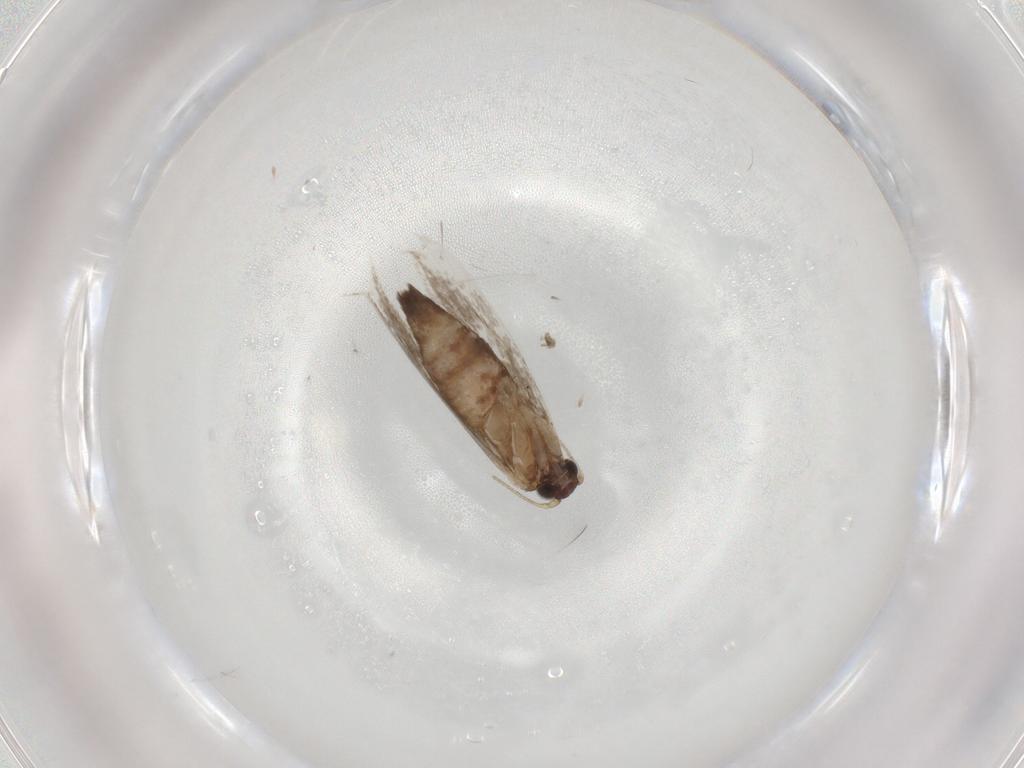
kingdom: Animalia
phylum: Arthropoda
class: Insecta
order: Lepidoptera
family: Tineidae
